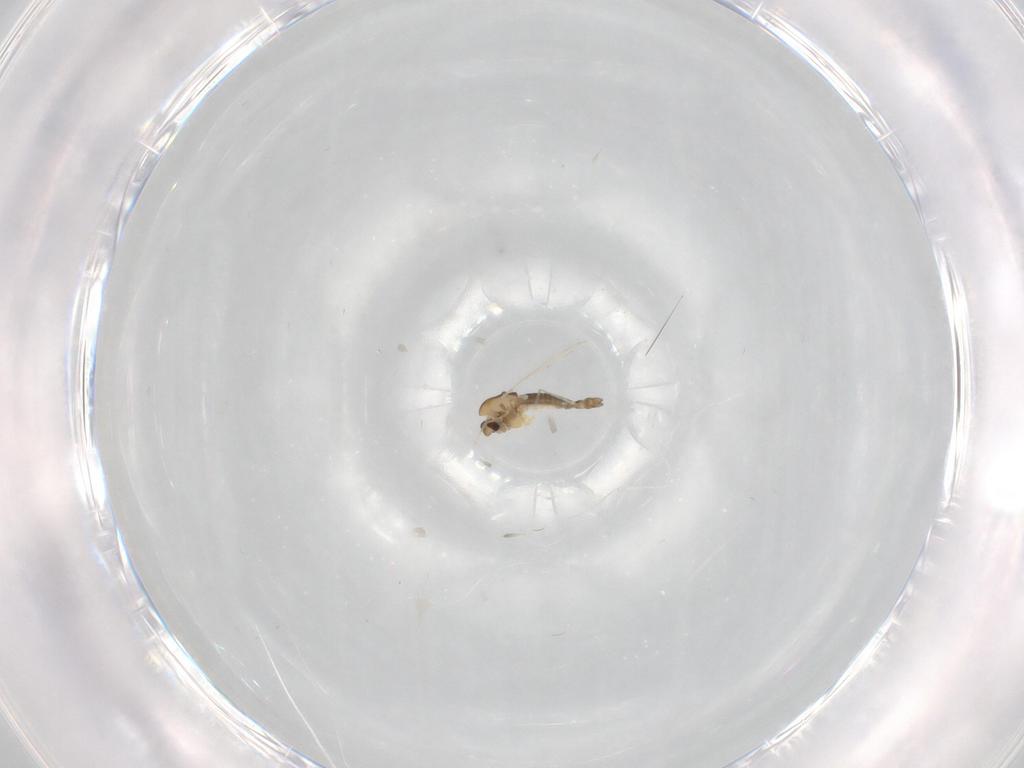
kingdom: Animalia
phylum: Arthropoda
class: Insecta
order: Diptera
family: Chironomidae
